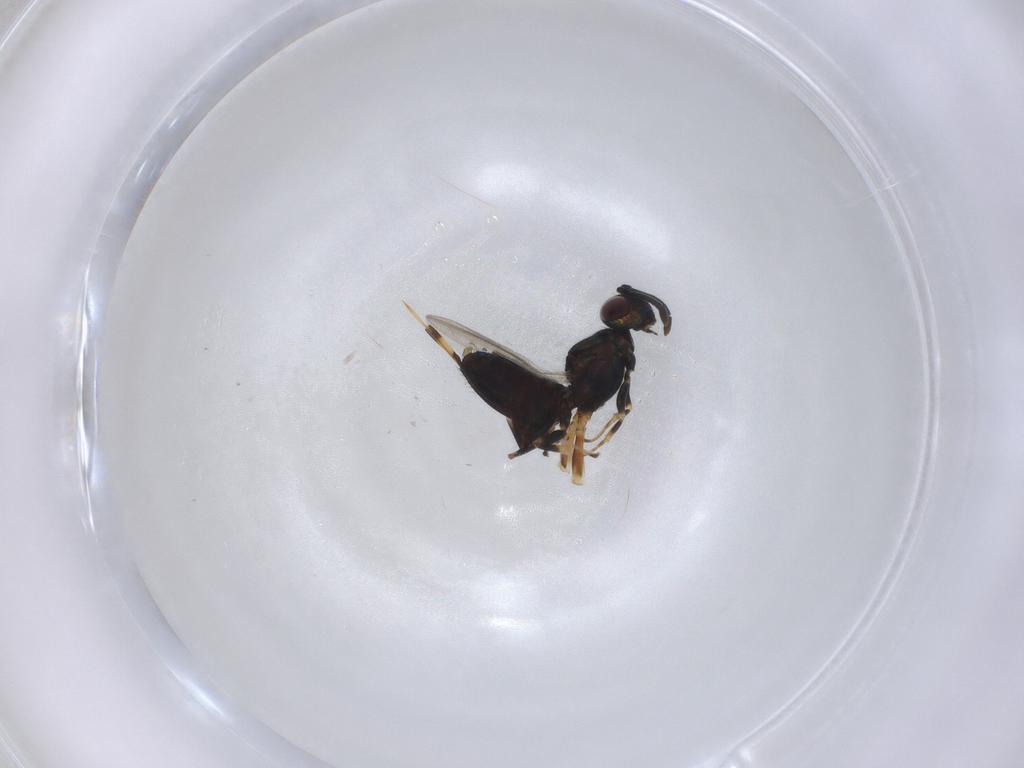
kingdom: Animalia
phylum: Arthropoda
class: Insecta
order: Hymenoptera
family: Eupelmidae
